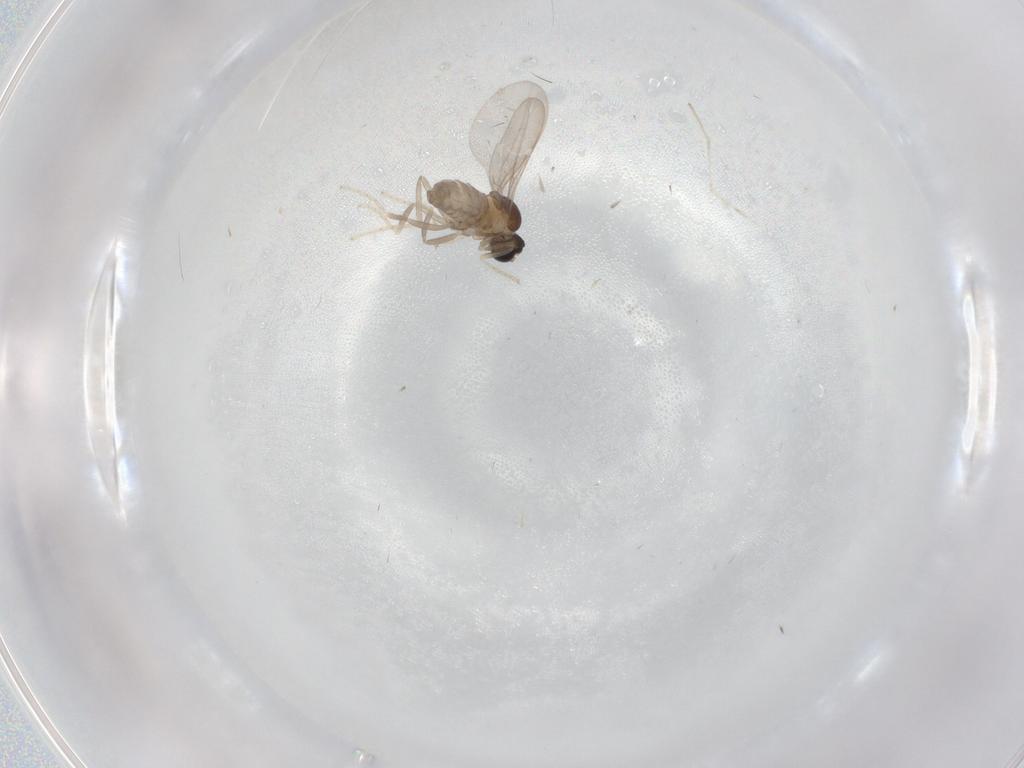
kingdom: Animalia
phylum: Arthropoda
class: Insecta
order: Diptera
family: Cecidomyiidae
